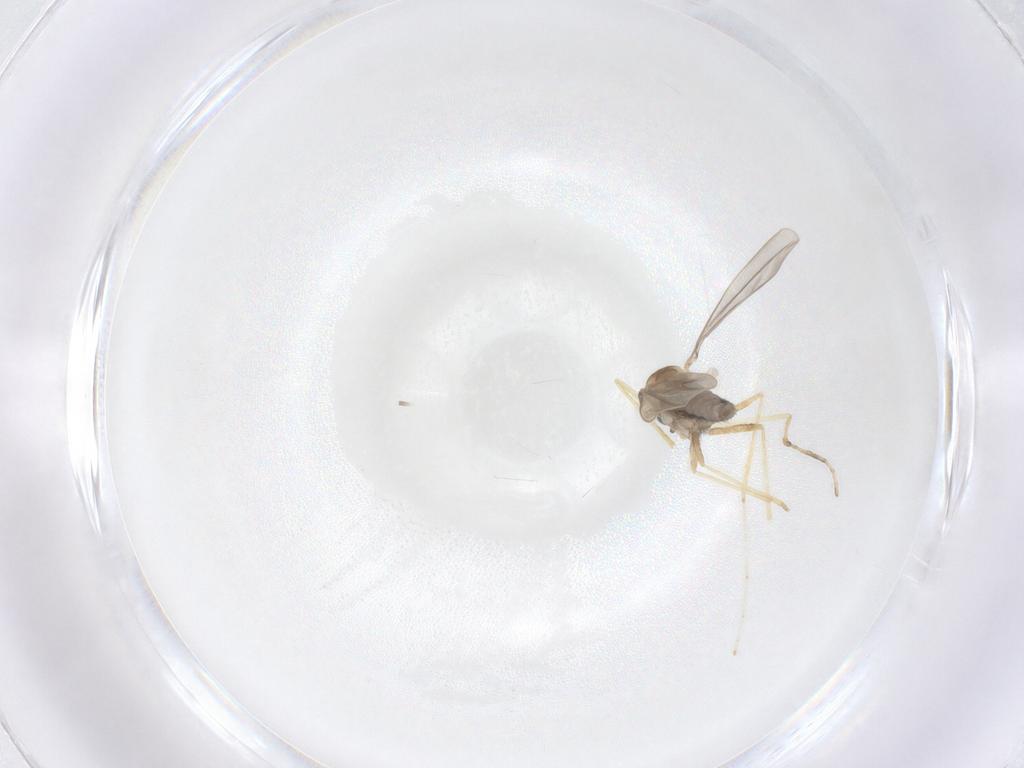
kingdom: Animalia
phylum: Arthropoda
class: Insecta
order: Diptera
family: Cecidomyiidae
